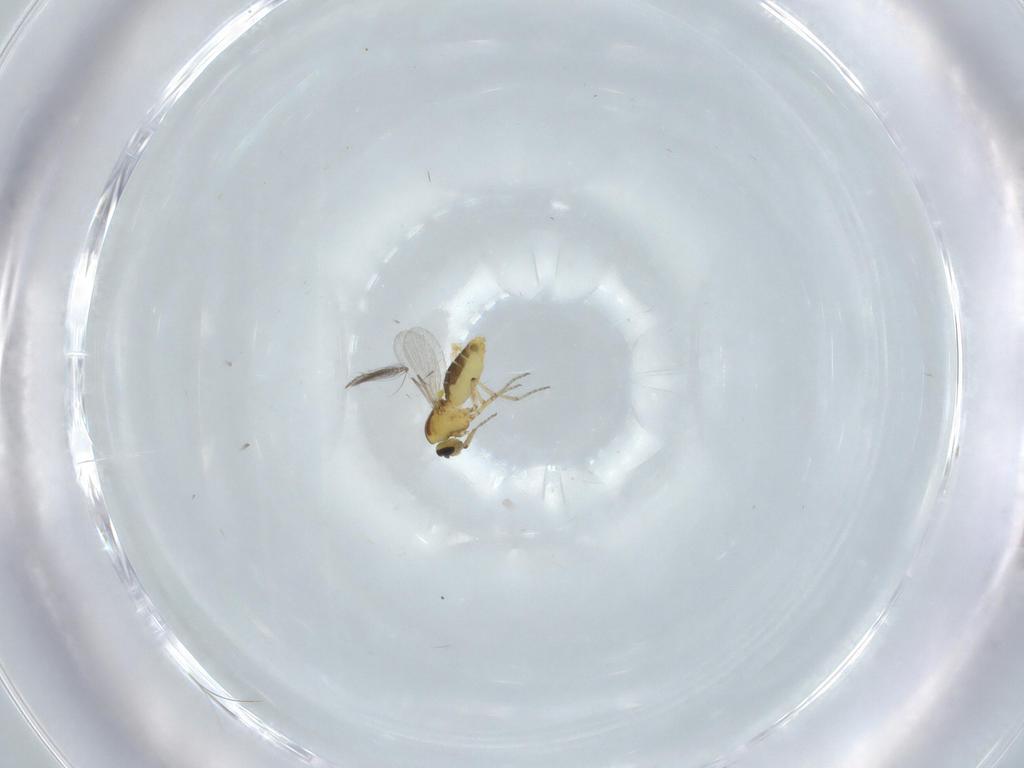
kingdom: Animalia
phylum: Arthropoda
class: Insecta
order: Diptera
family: Ceratopogonidae
